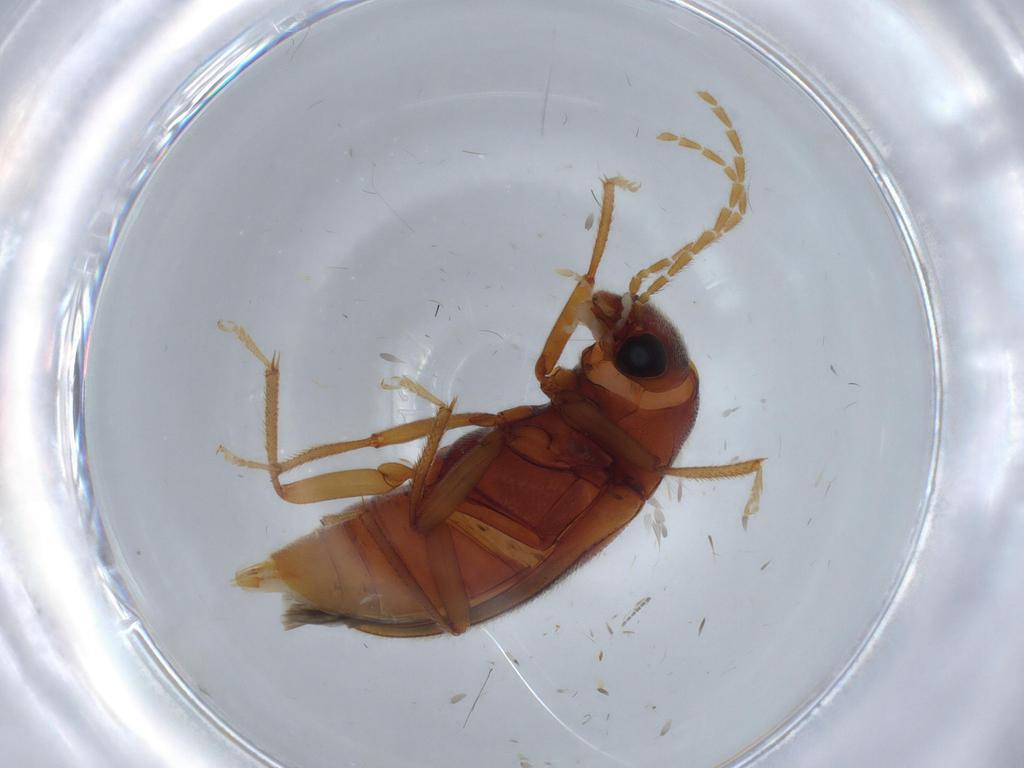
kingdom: Animalia
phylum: Arthropoda
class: Insecta
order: Coleoptera
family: Ptilodactylidae
